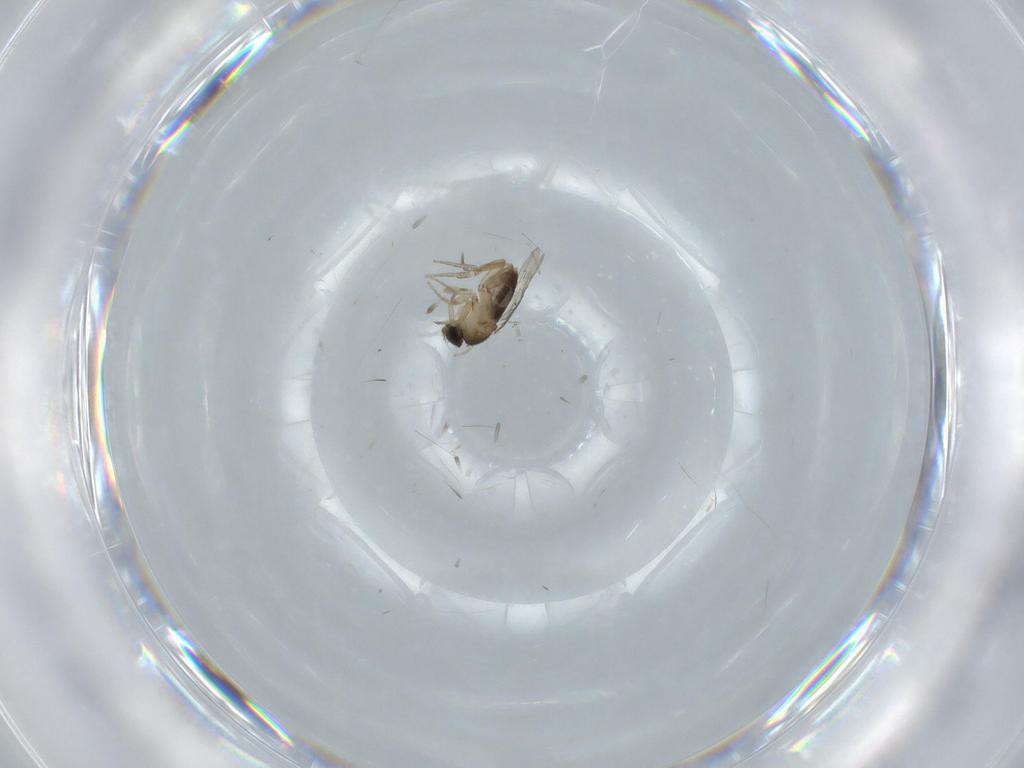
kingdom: Animalia
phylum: Arthropoda
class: Insecta
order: Diptera
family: Phoridae
